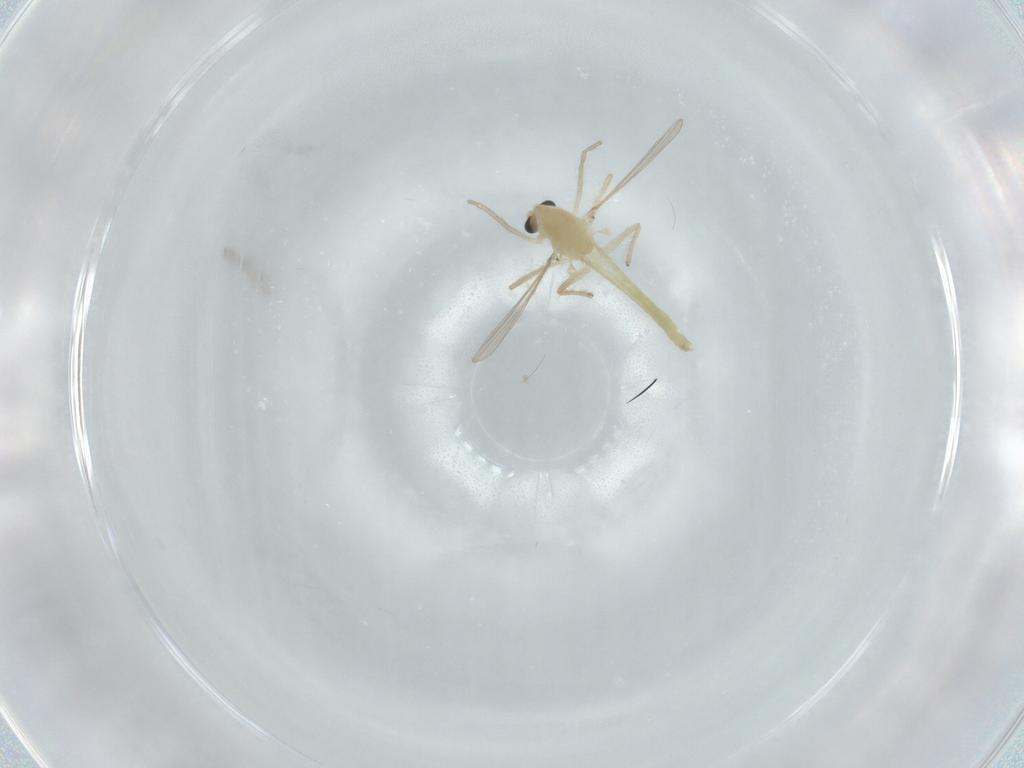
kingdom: Animalia
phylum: Arthropoda
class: Insecta
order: Diptera
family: Chironomidae
